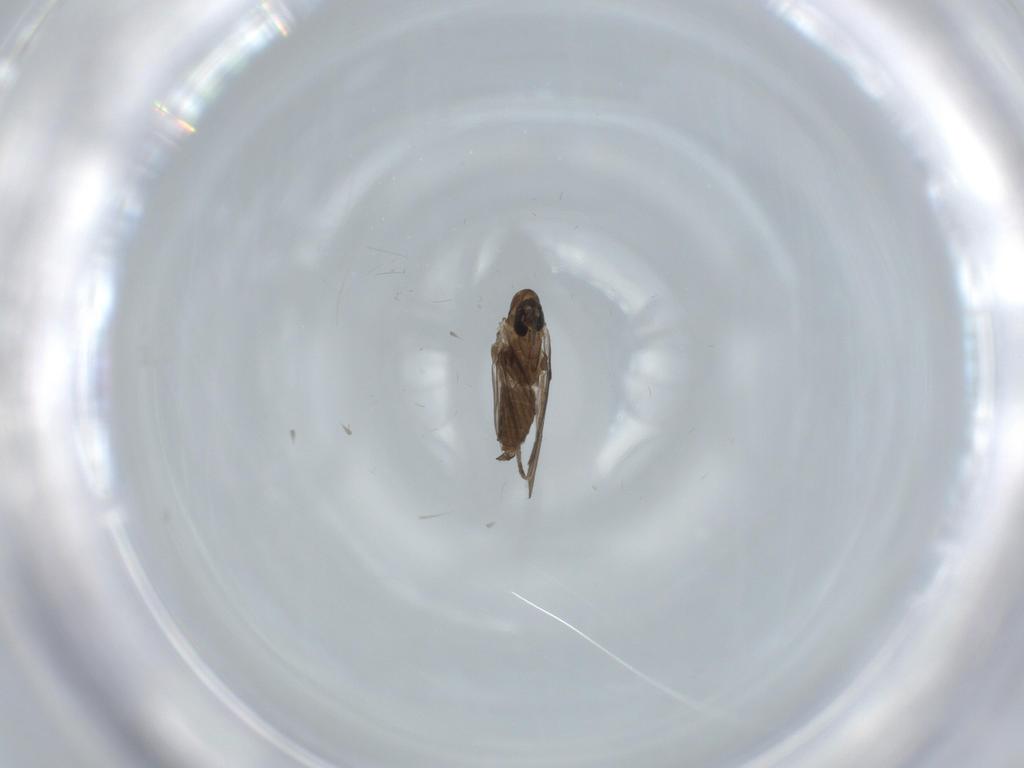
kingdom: Animalia
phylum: Arthropoda
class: Insecta
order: Diptera
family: Psychodidae
